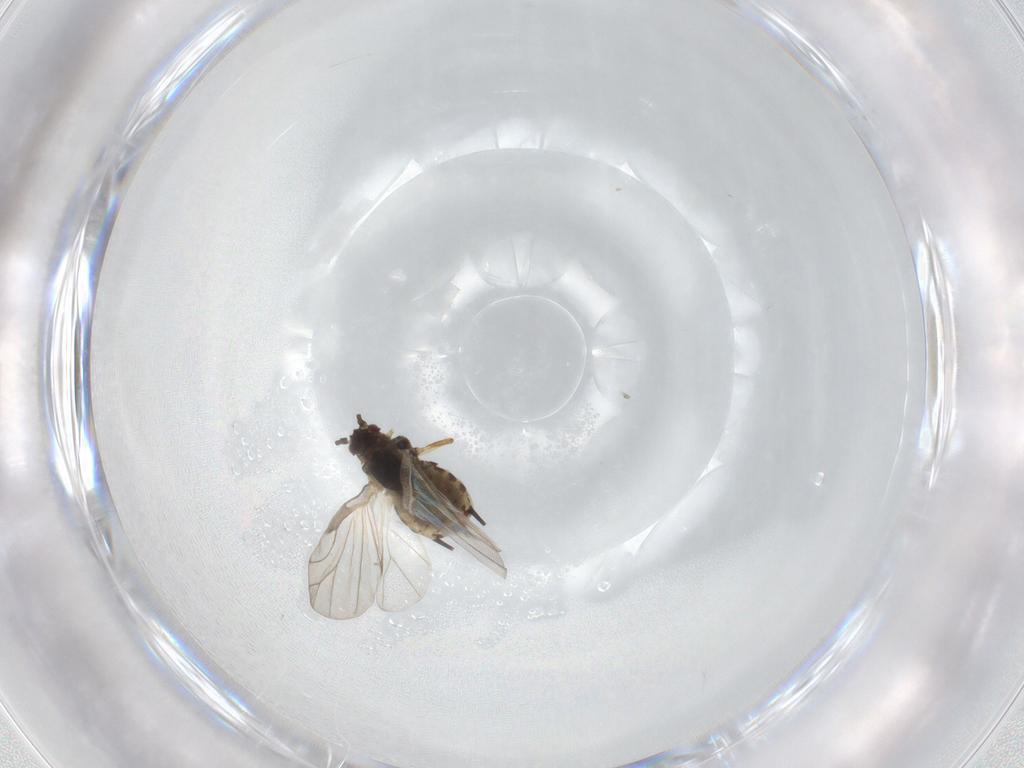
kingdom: Animalia
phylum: Arthropoda
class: Insecta
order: Hemiptera
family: Aphididae
